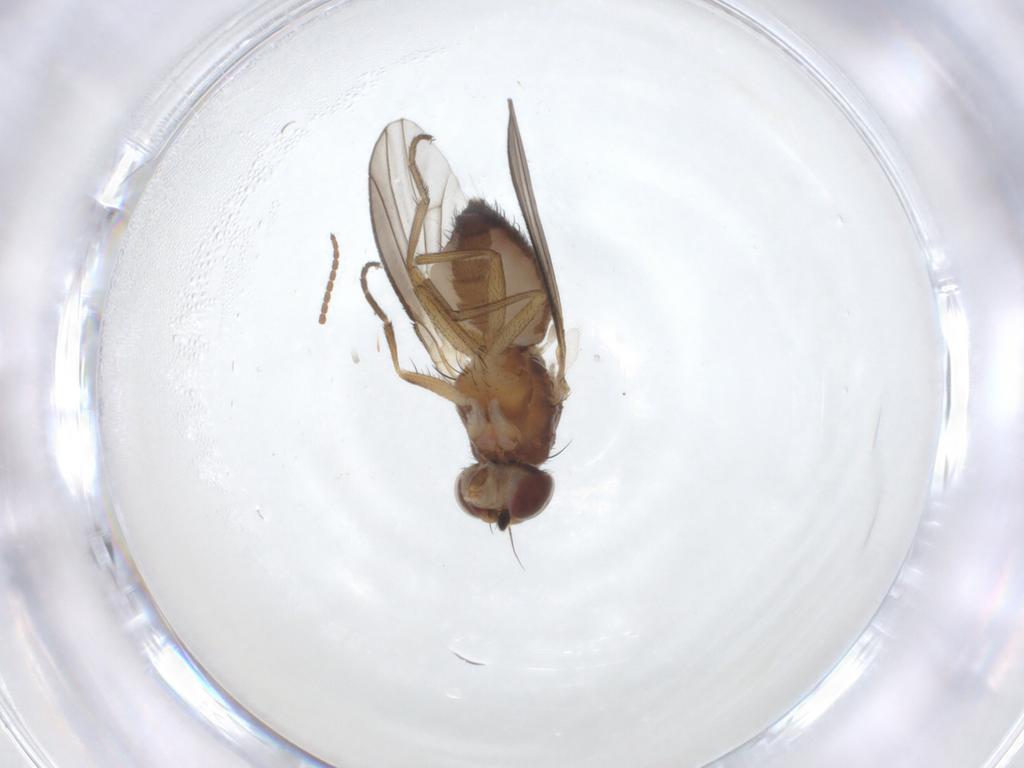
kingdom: Animalia
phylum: Arthropoda
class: Insecta
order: Diptera
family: Heleomyzidae
